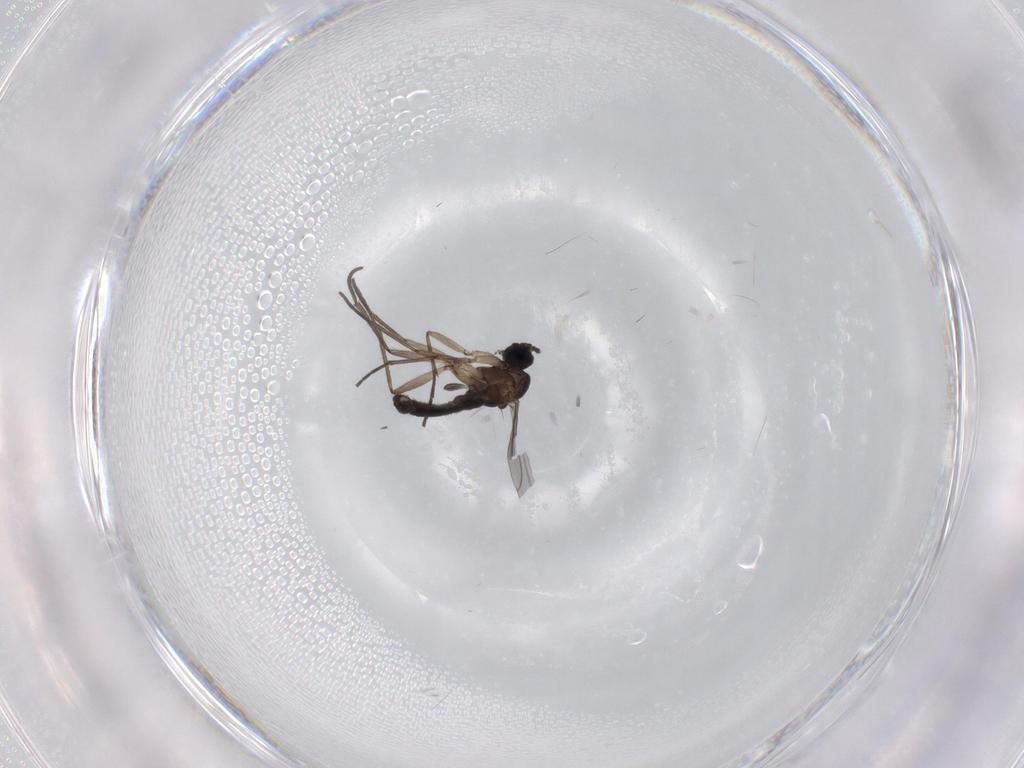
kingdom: Animalia
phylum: Arthropoda
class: Insecta
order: Diptera
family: Sciaridae
